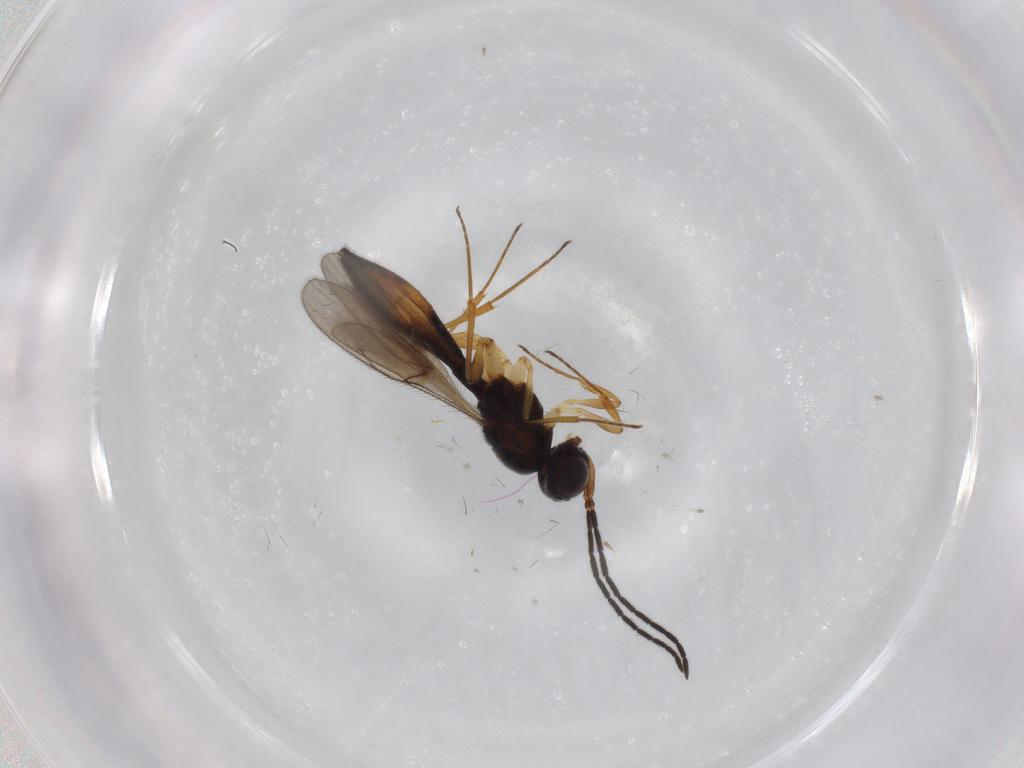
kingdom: Animalia
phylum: Arthropoda
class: Insecta
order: Hymenoptera
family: Scelionidae
